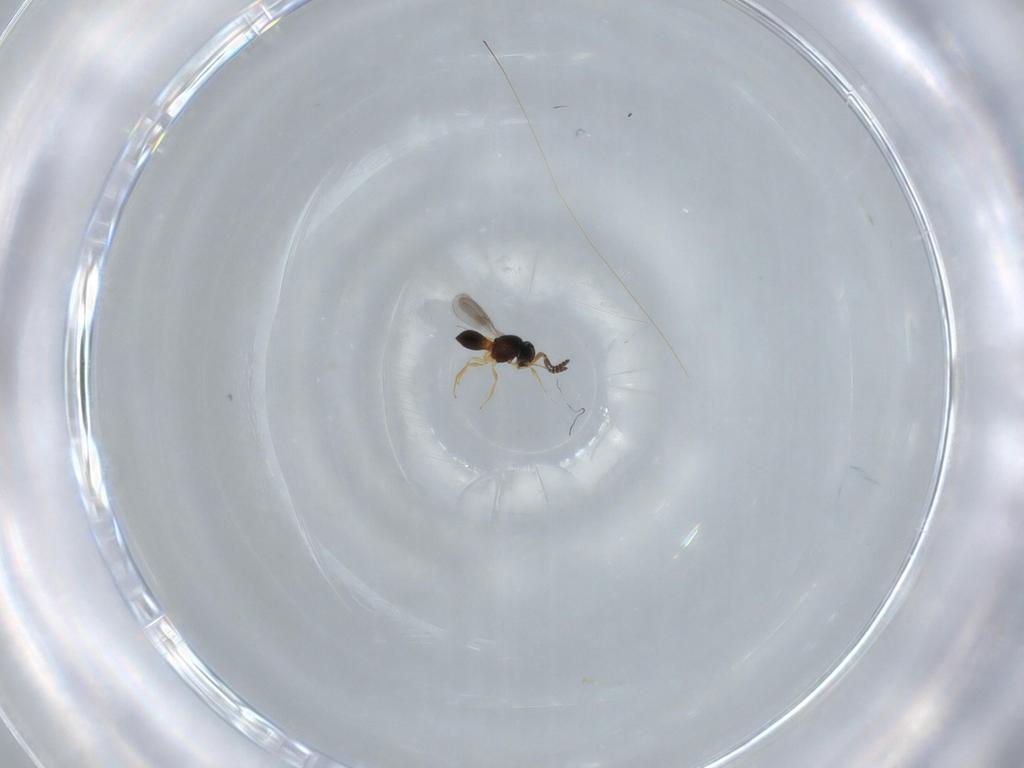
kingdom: Animalia
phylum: Arthropoda
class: Insecta
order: Hymenoptera
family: Scelionidae
